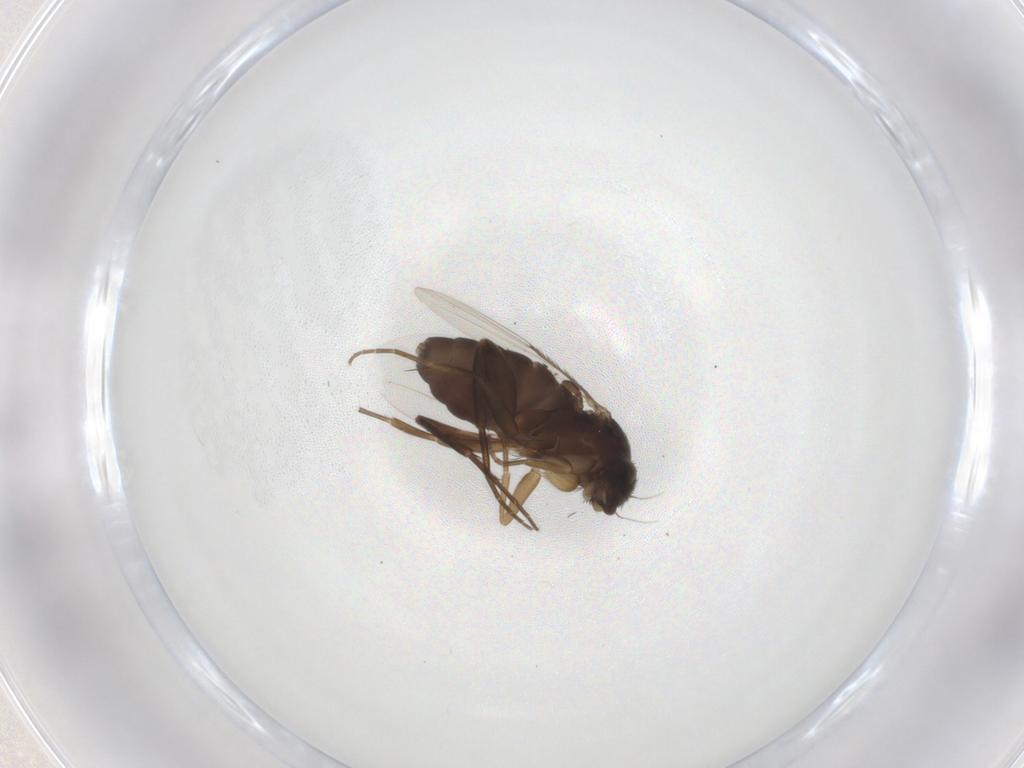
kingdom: Animalia
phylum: Arthropoda
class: Insecta
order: Diptera
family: Phoridae
